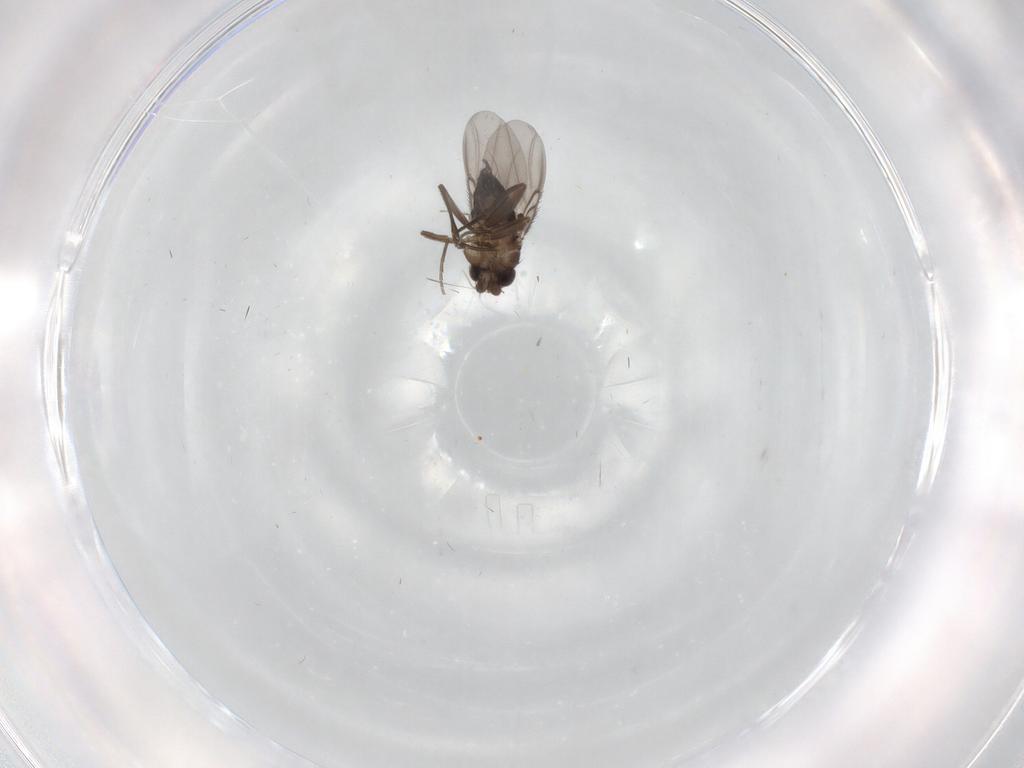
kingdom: Animalia
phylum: Arthropoda
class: Insecta
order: Diptera
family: Phoridae
